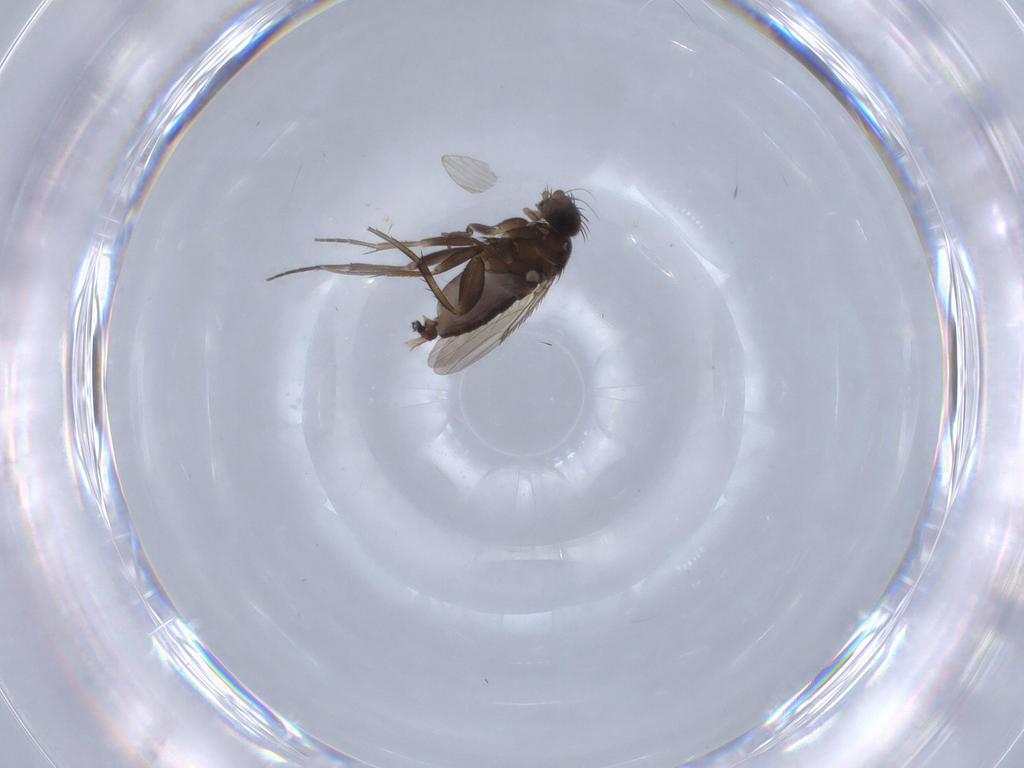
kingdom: Animalia
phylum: Arthropoda
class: Insecta
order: Diptera
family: Phoridae
